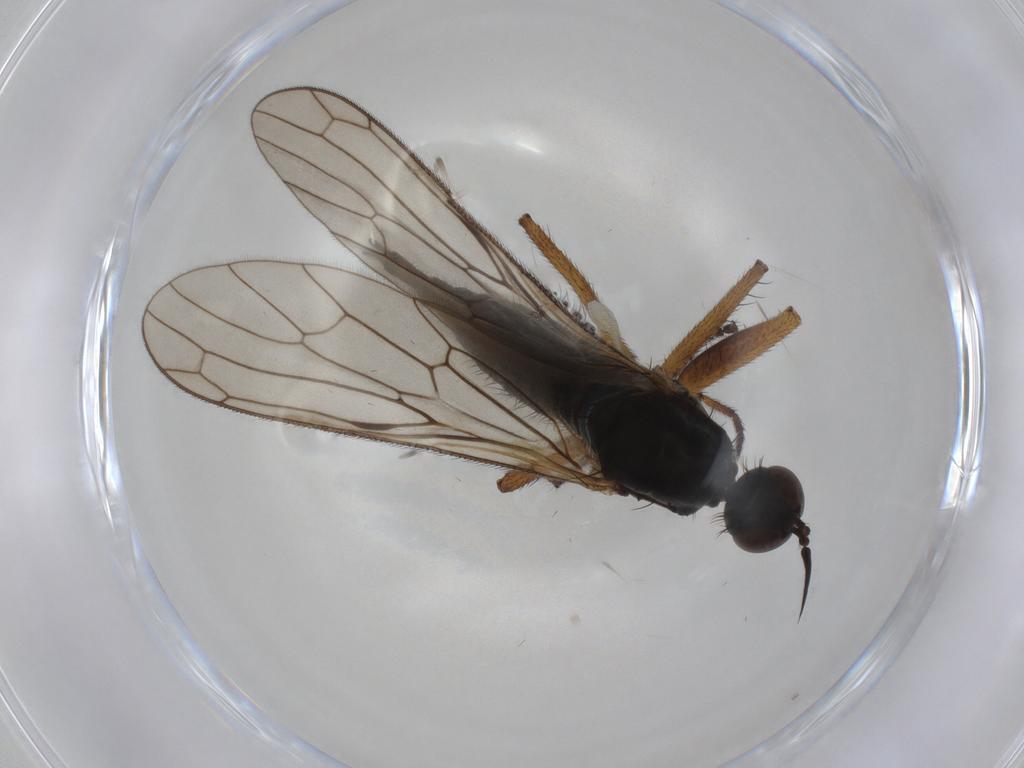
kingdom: Animalia
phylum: Arthropoda
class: Insecta
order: Diptera
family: Chironomidae
